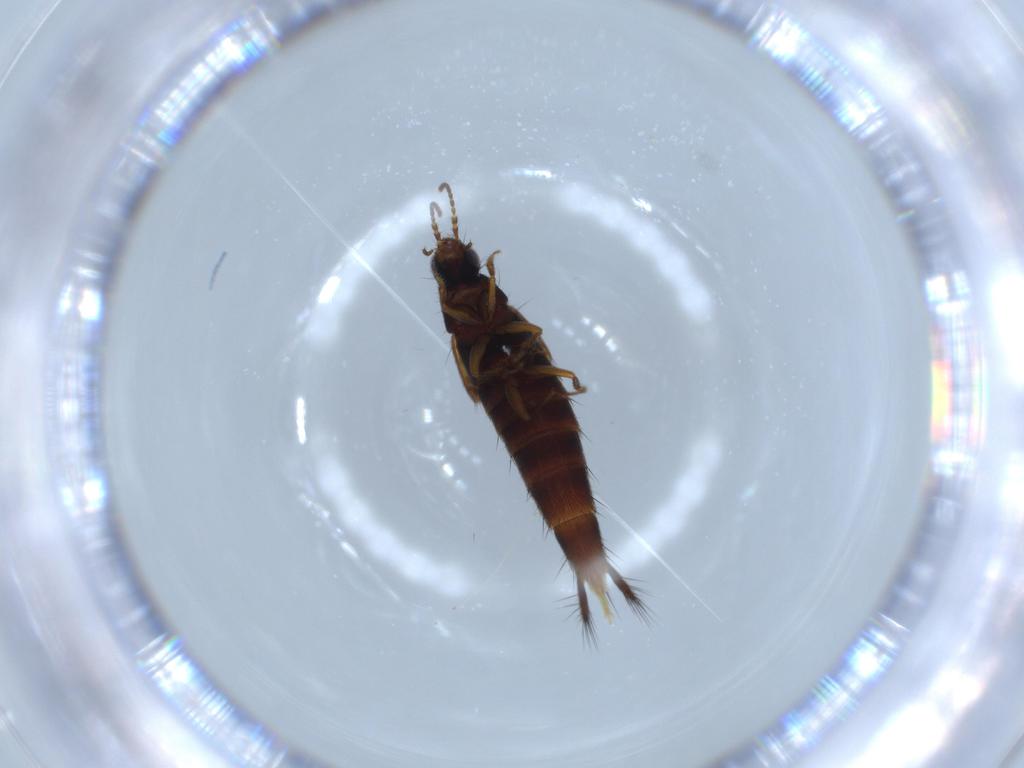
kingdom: Animalia
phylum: Arthropoda
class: Insecta
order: Coleoptera
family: Staphylinidae
